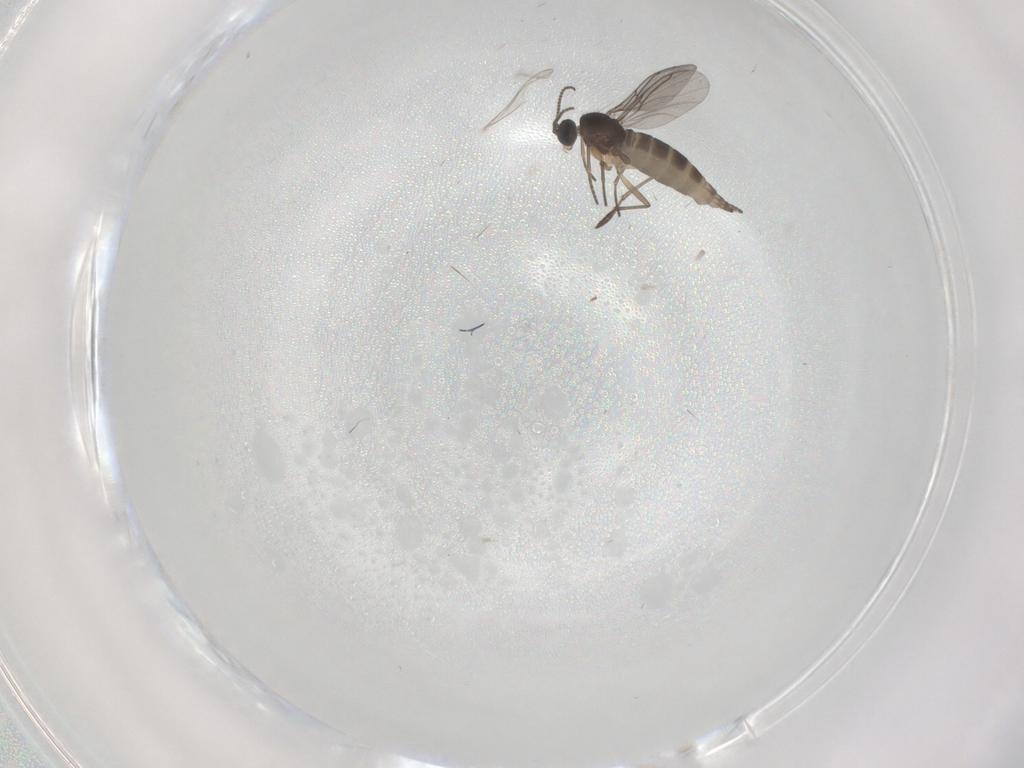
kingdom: Animalia
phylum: Arthropoda
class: Insecta
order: Diptera
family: Sciaridae
